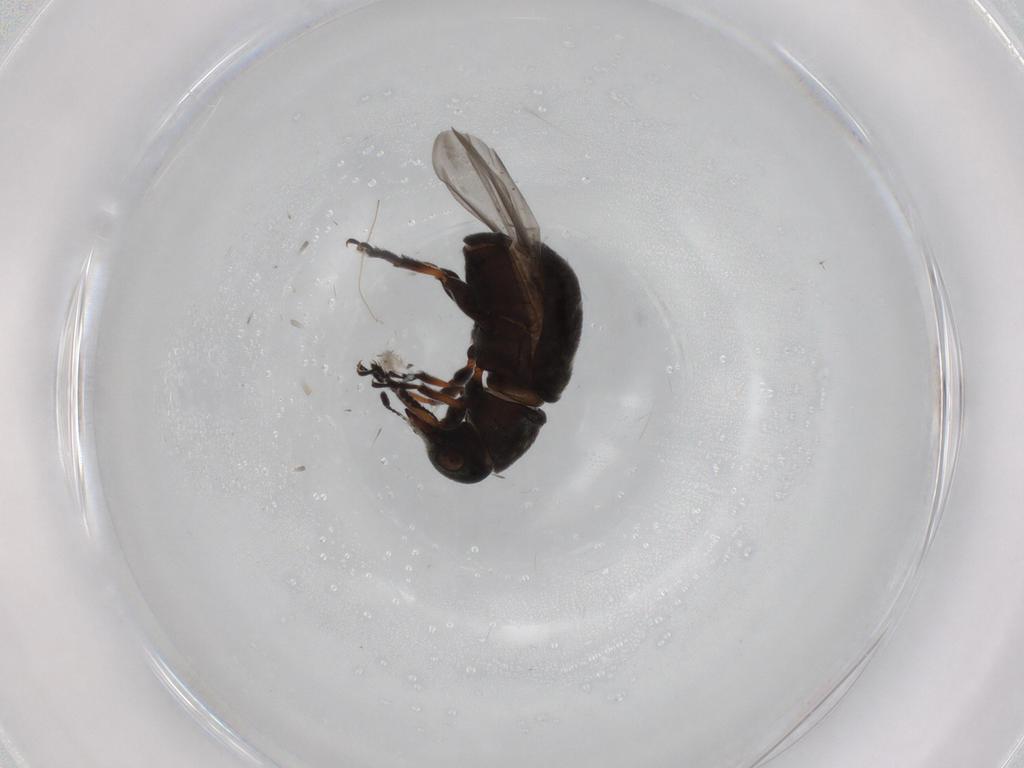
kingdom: Animalia
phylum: Arthropoda
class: Insecta
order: Coleoptera
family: Anthribidae
